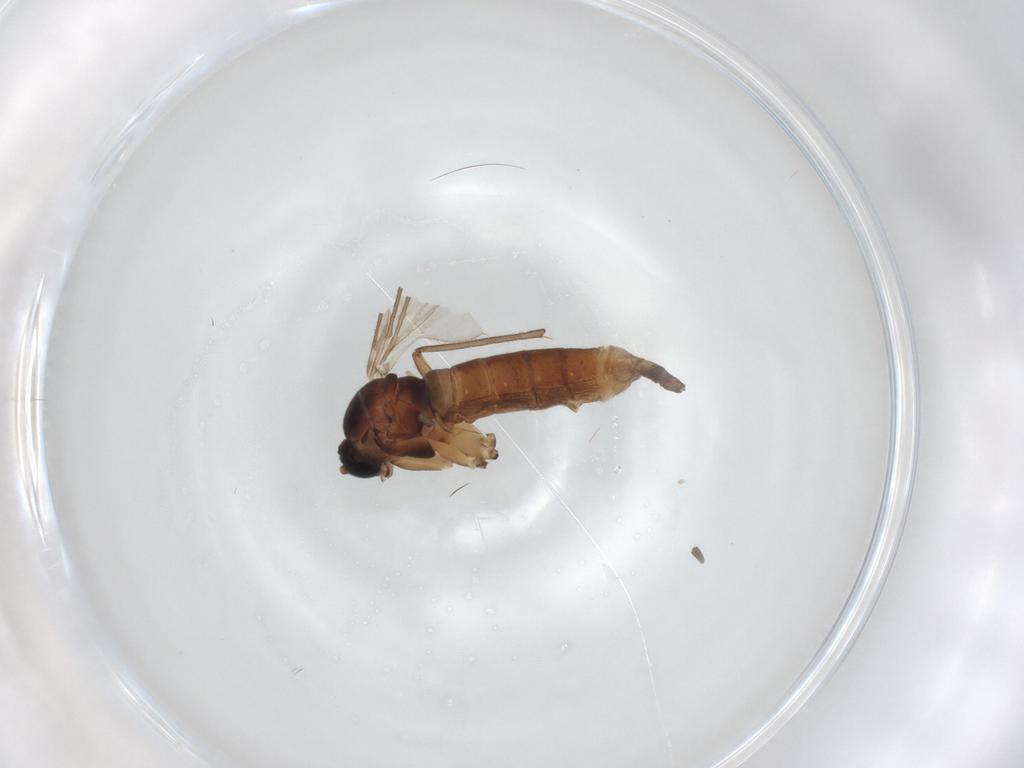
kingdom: Animalia
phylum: Arthropoda
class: Insecta
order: Diptera
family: Sciaridae
